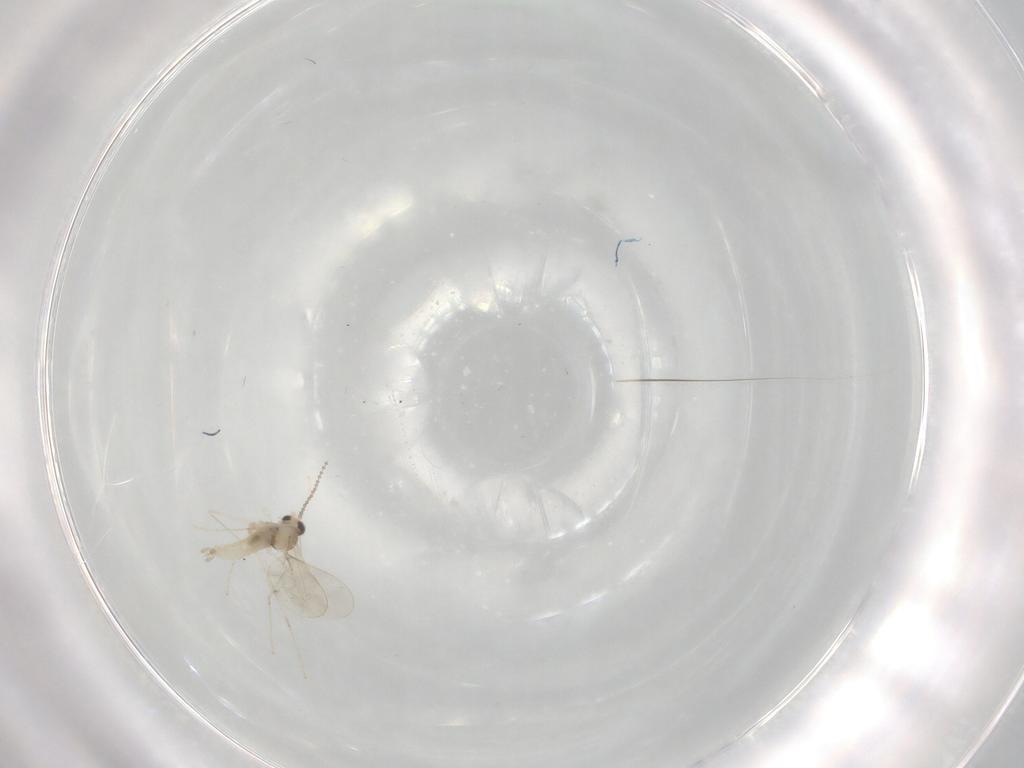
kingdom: Animalia
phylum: Arthropoda
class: Insecta
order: Diptera
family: Cecidomyiidae
